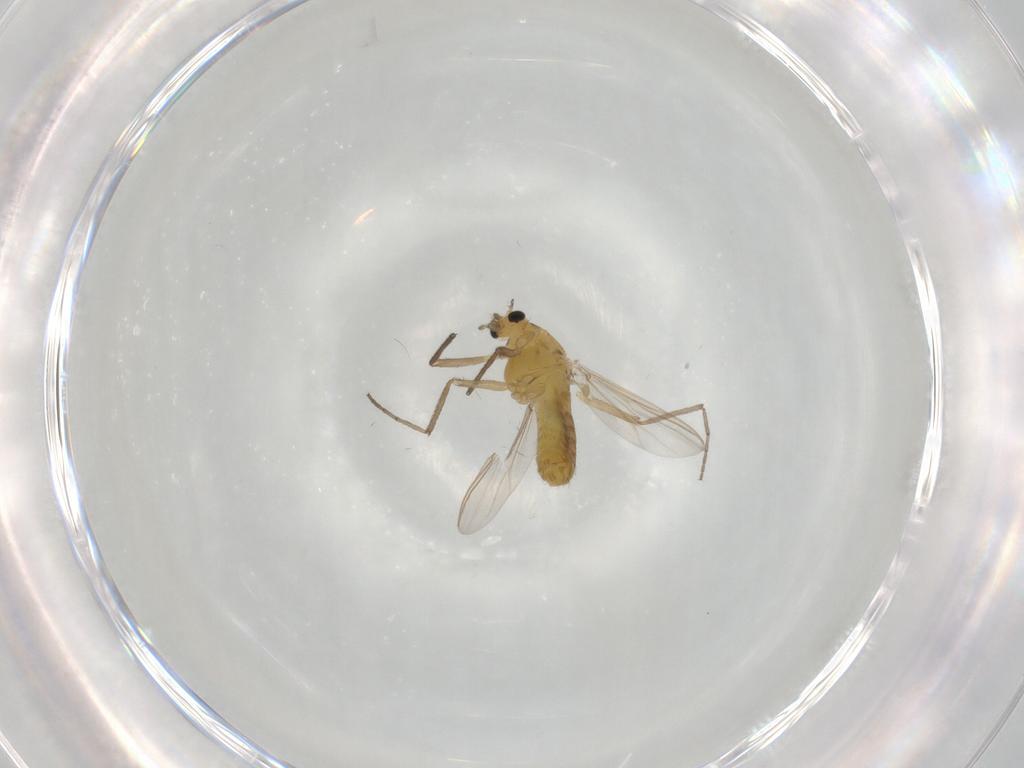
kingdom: Animalia
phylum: Arthropoda
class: Insecta
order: Diptera
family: Chironomidae
